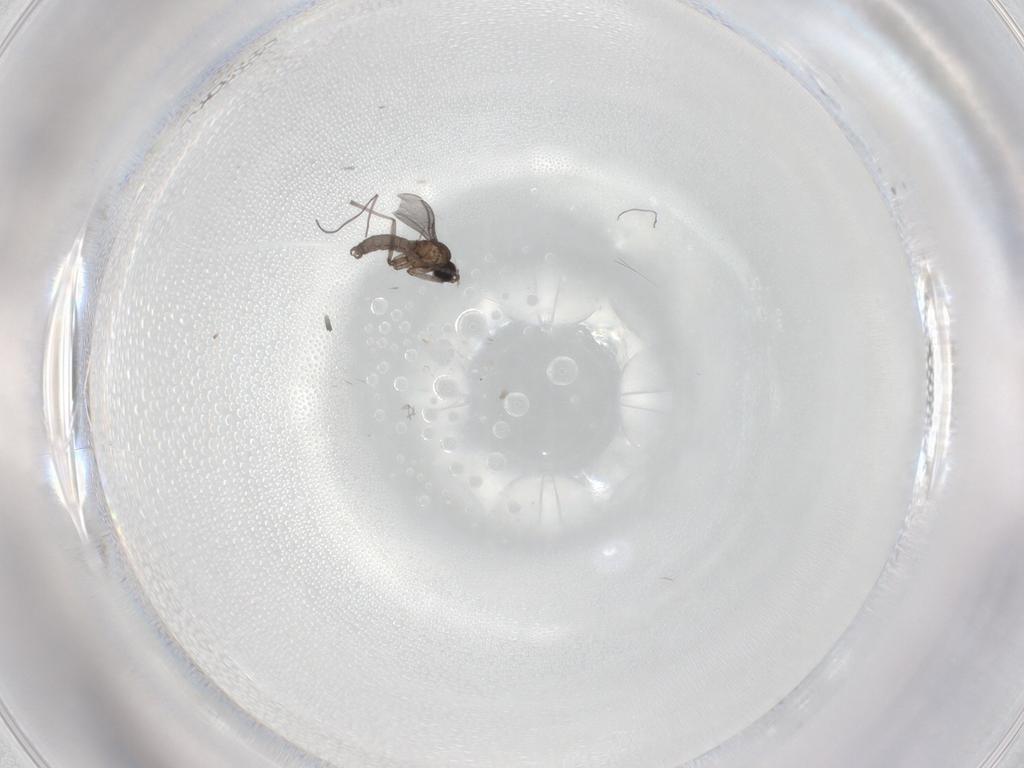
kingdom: Animalia
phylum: Arthropoda
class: Insecta
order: Diptera
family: Sciaridae
